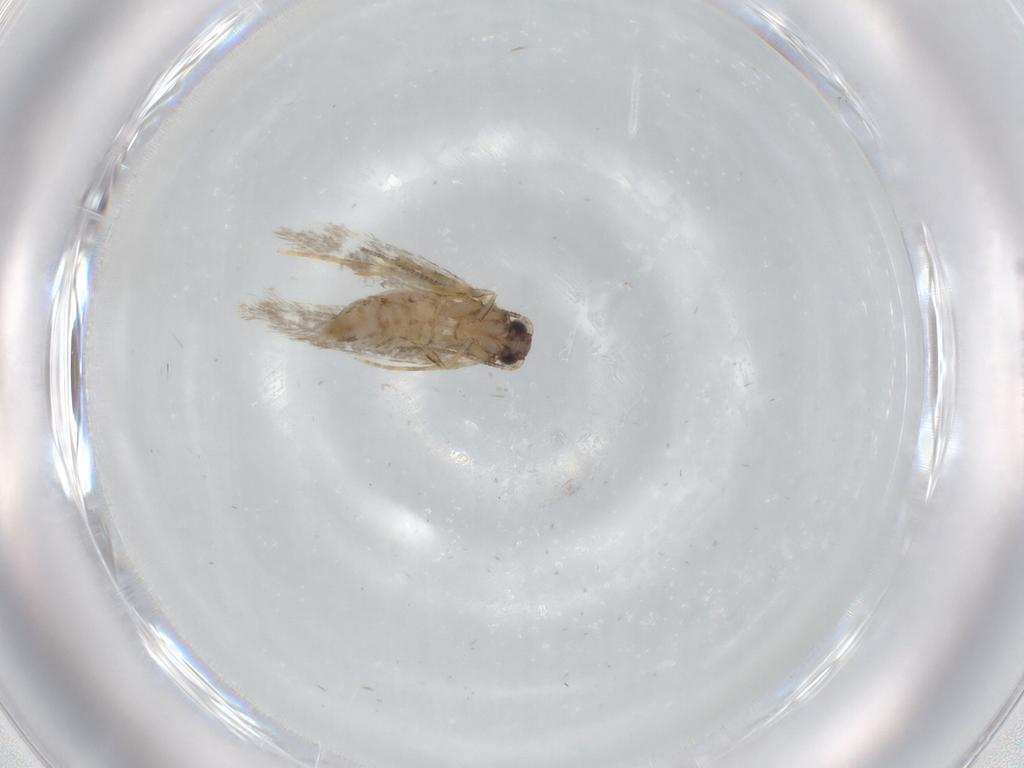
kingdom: Animalia
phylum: Arthropoda
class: Insecta
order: Lepidoptera
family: Tineidae
